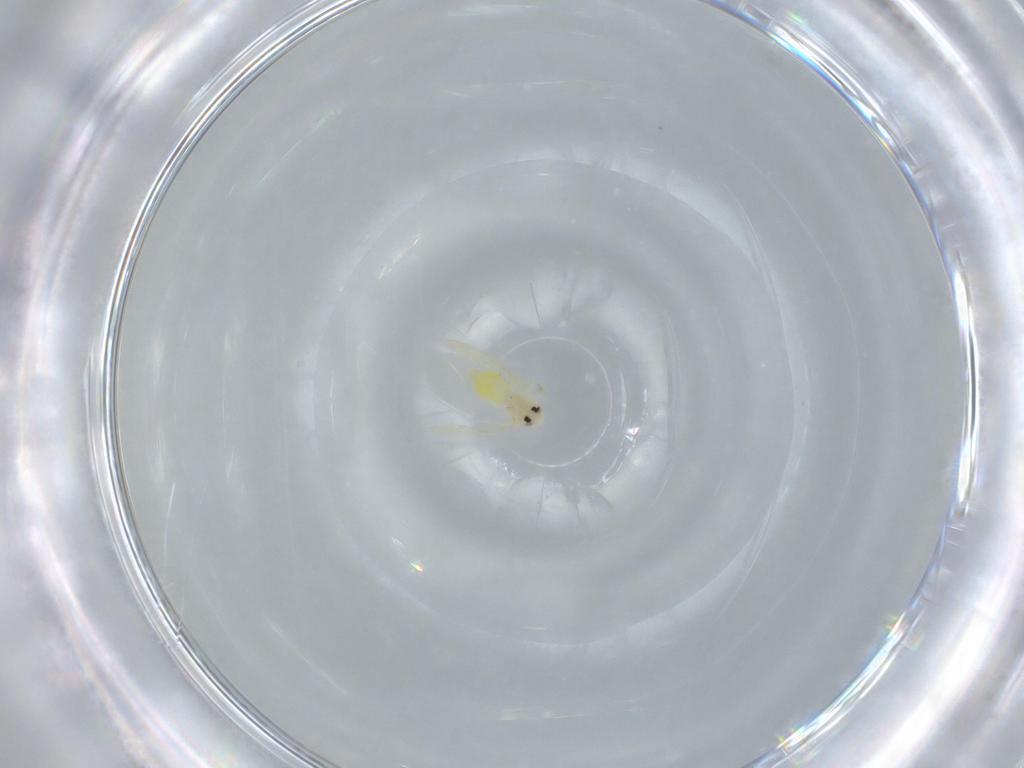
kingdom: Animalia
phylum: Arthropoda
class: Insecta
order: Hemiptera
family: Aleyrodidae
